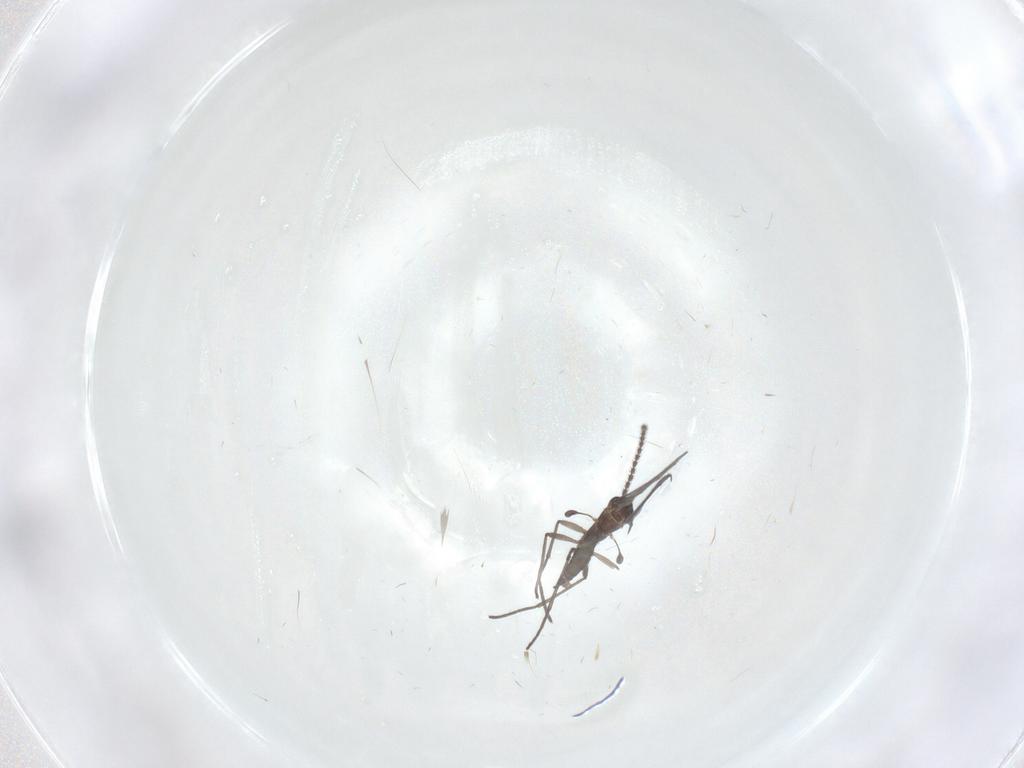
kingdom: Animalia
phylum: Arthropoda
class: Insecta
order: Diptera
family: Cecidomyiidae
